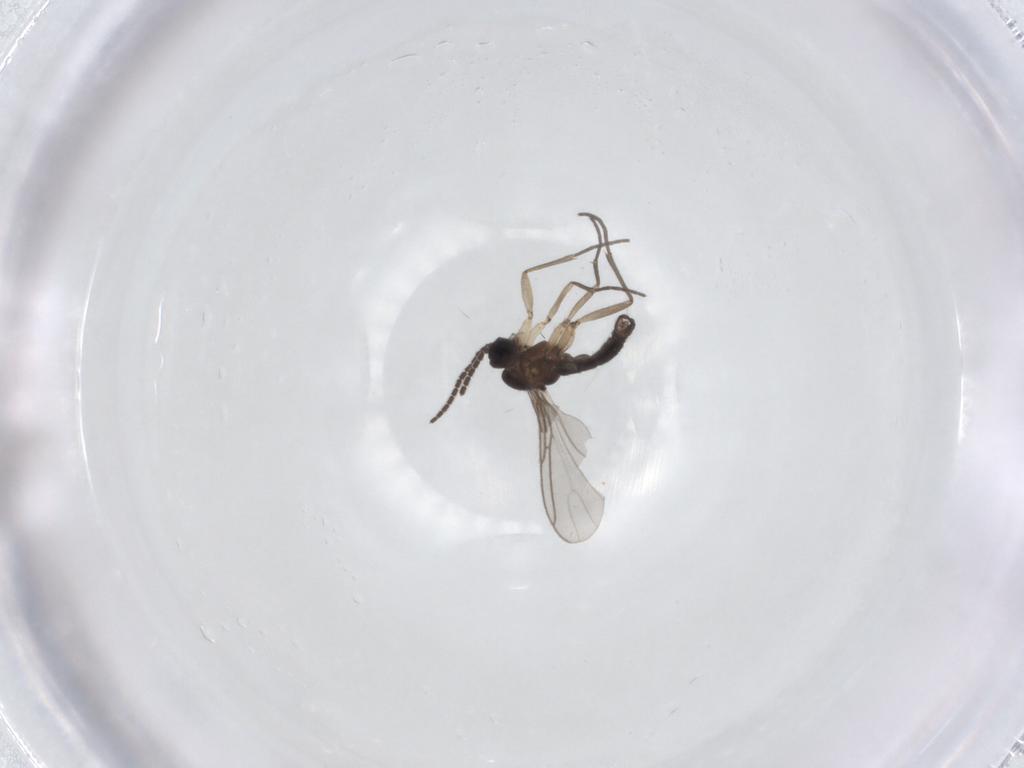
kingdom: Animalia
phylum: Arthropoda
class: Insecta
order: Diptera
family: Sciaridae
